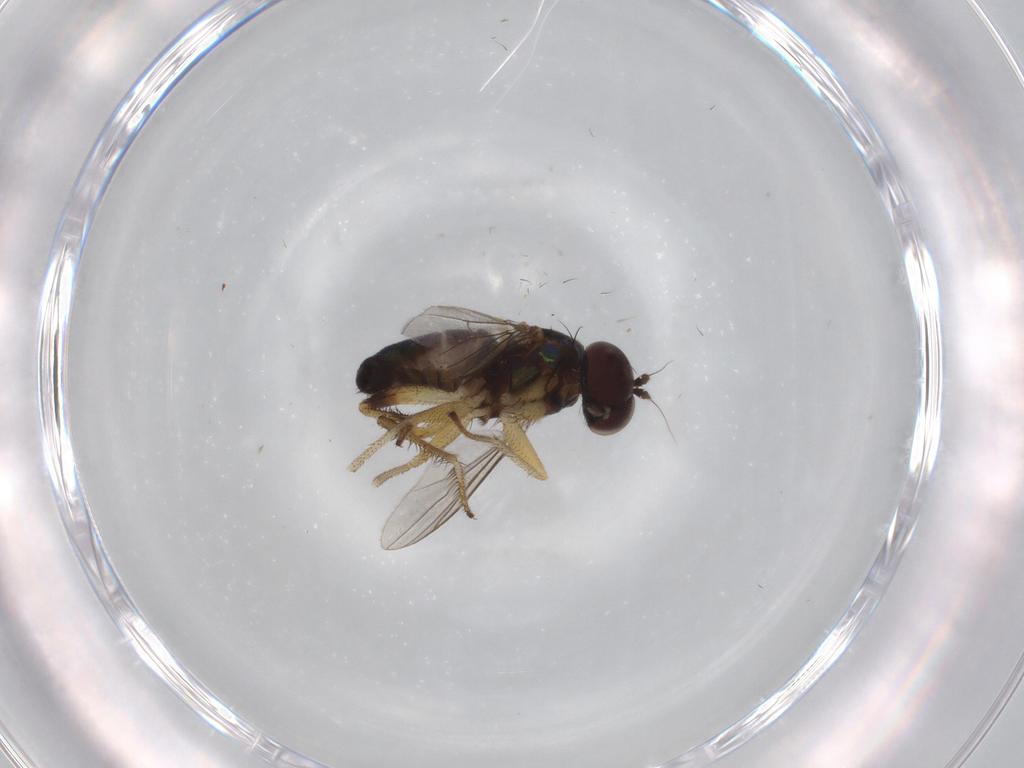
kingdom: Animalia
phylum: Arthropoda
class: Insecta
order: Diptera
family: Dolichopodidae
